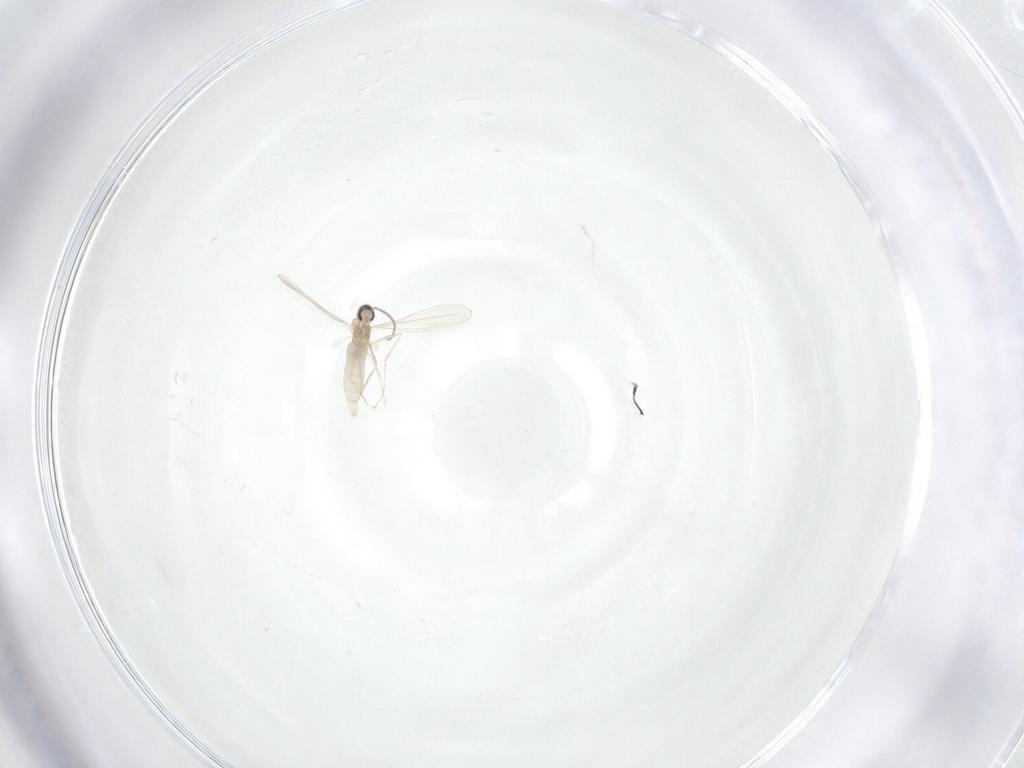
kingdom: Animalia
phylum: Arthropoda
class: Insecta
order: Diptera
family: Cecidomyiidae
